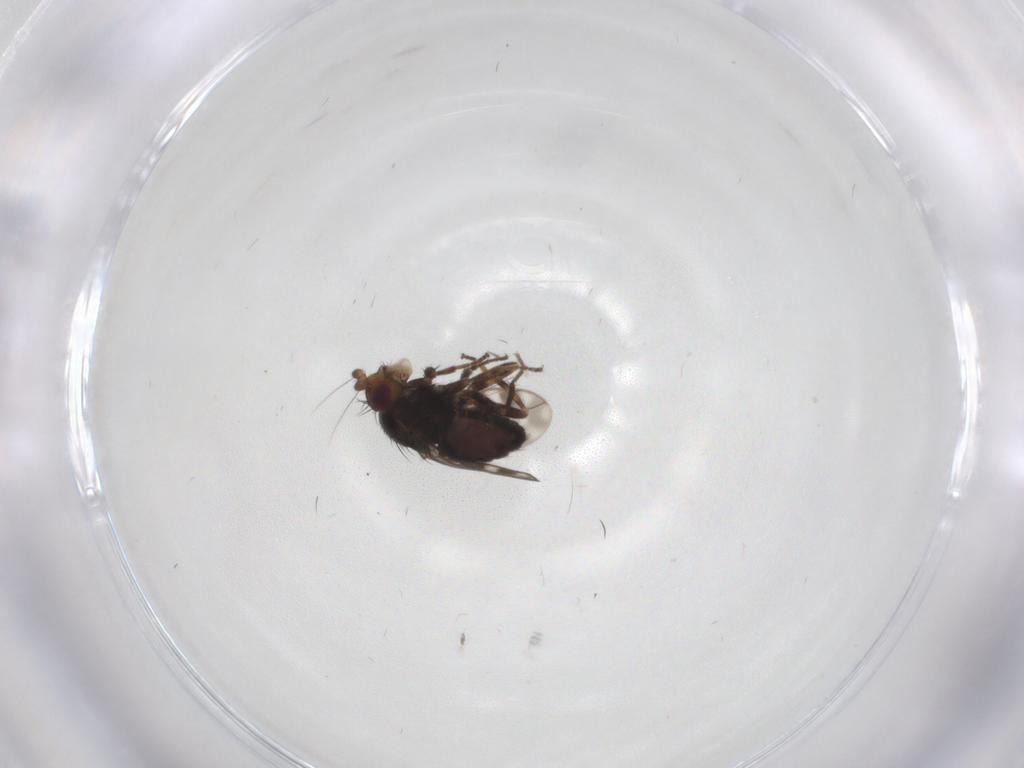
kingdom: Animalia
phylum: Arthropoda
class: Insecta
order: Diptera
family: Sphaeroceridae
